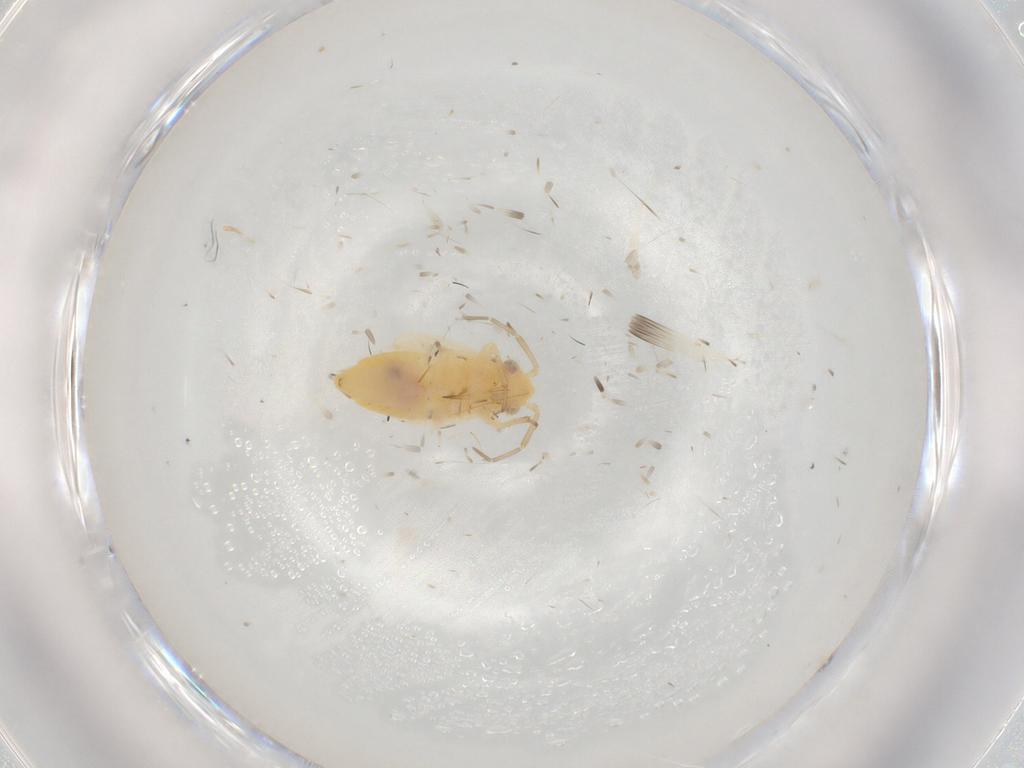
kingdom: Animalia
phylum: Arthropoda
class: Insecta
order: Hemiptera
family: Miridae
